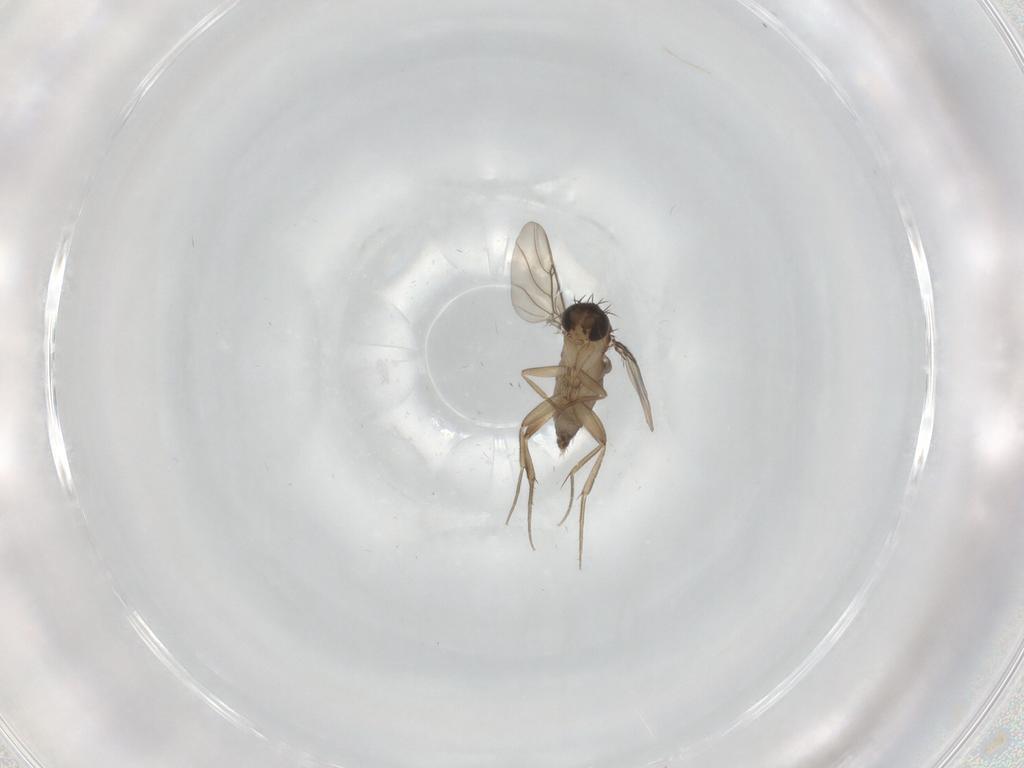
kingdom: Animalia
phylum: Arthropoda
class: Insecta
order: Diptera
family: Phoridae
